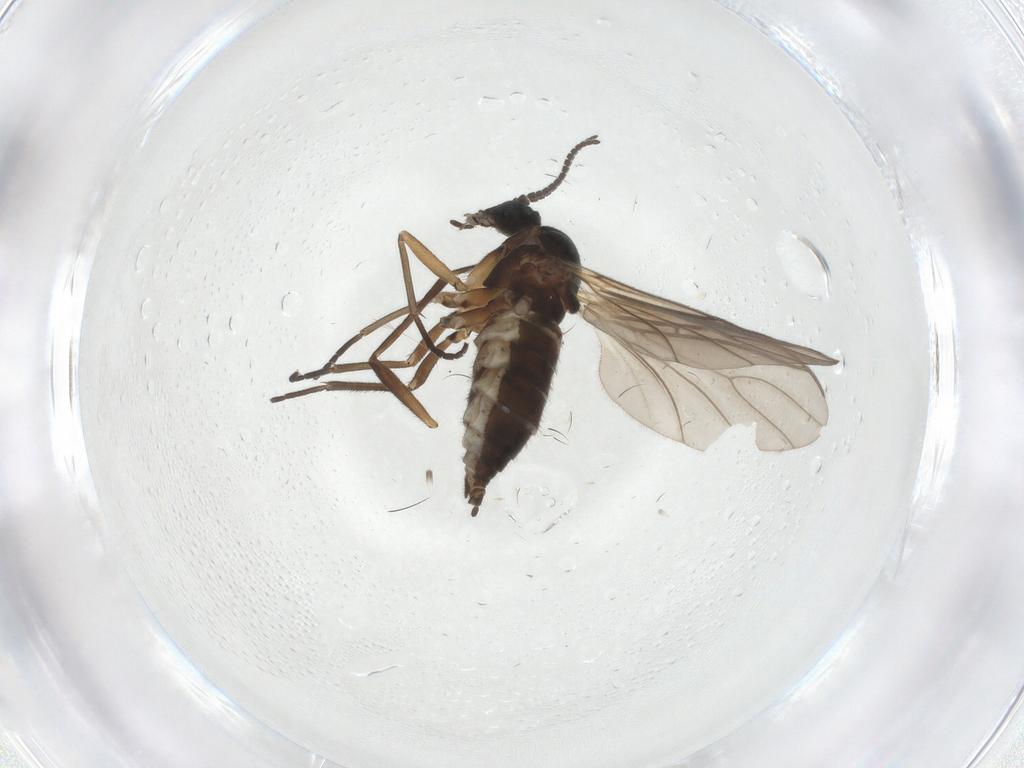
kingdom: Animalia
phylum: Arthropoda
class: Insecta
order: Diptera
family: Sciaridae
